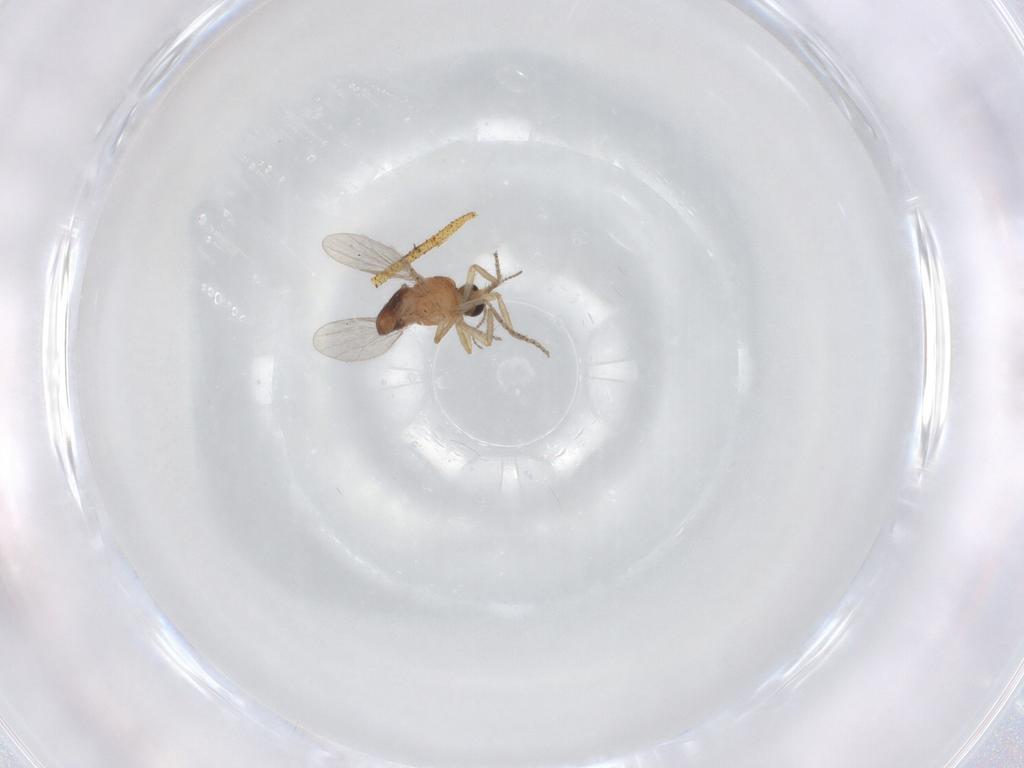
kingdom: Animalia
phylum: Arthropoda
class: Insecta
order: Diptera
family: Ceratopogonidae
